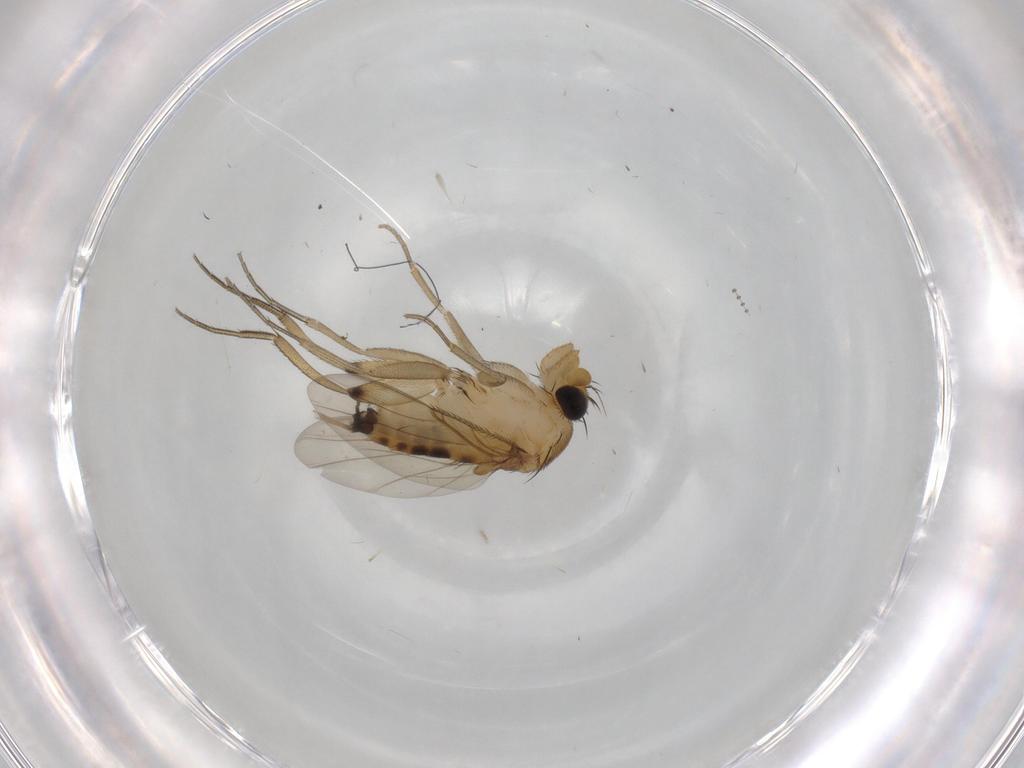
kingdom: Animalia
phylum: Arthropoda
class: Insecta
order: Diptera
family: Phoridae
